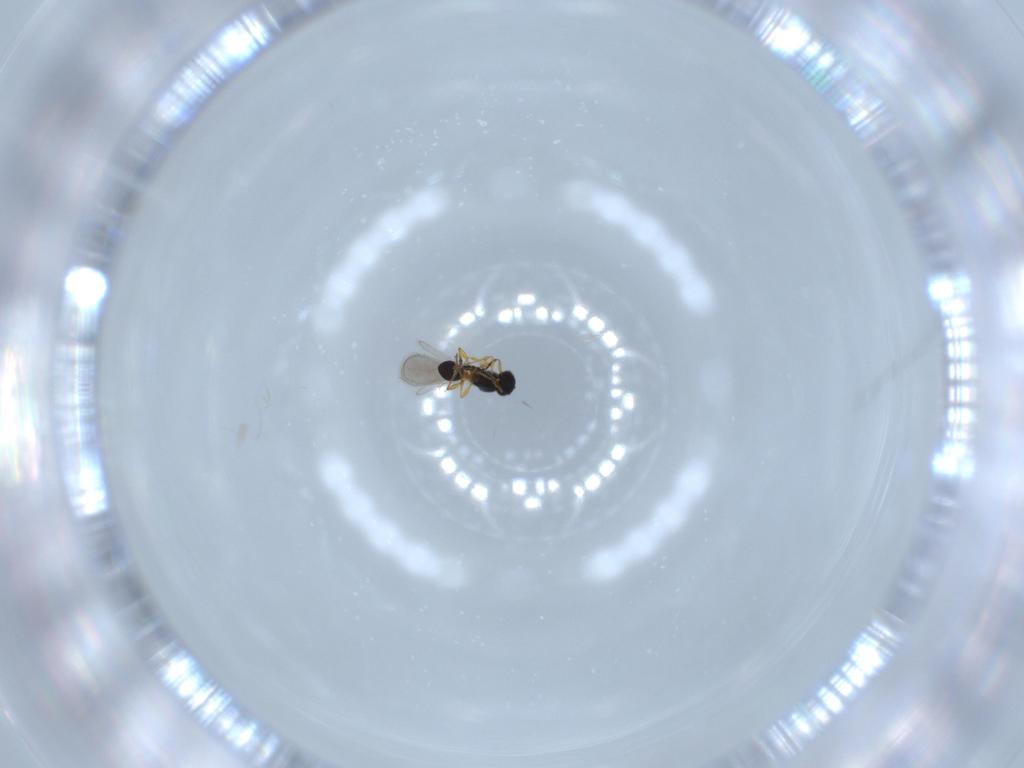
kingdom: Animalia
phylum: Arthropoda
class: Insecta
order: Hymenoptera
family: Platygastridae
